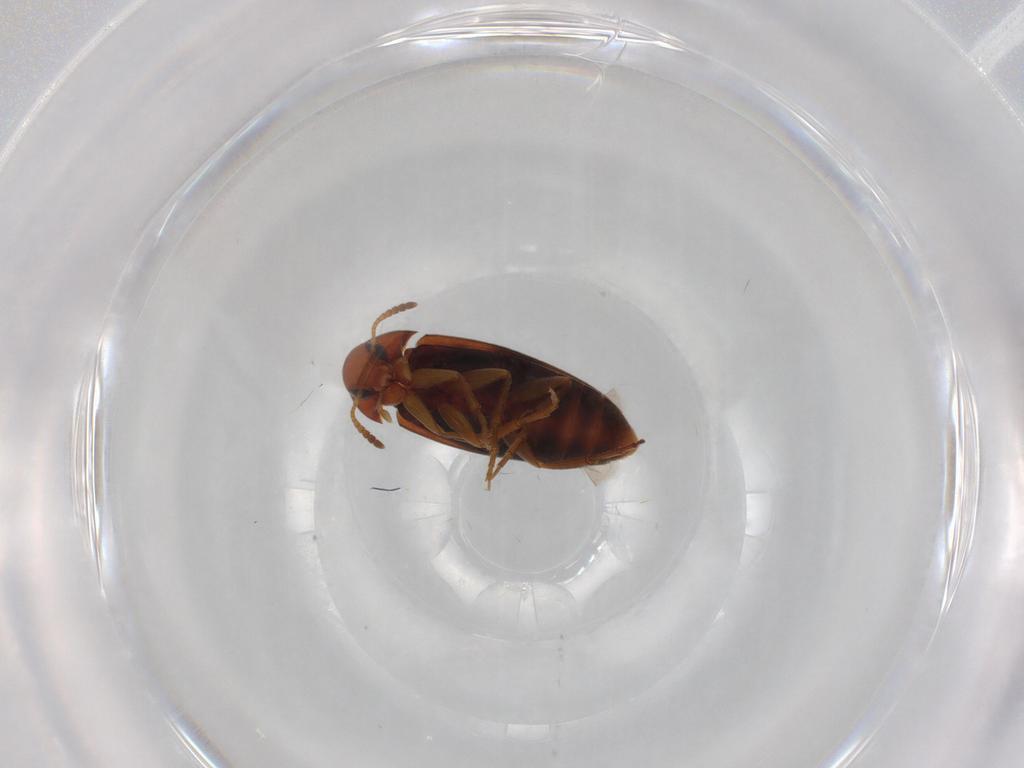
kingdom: Animalia
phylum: Arthropoda
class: Insecta
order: Coleoptera
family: Scraptiidae
